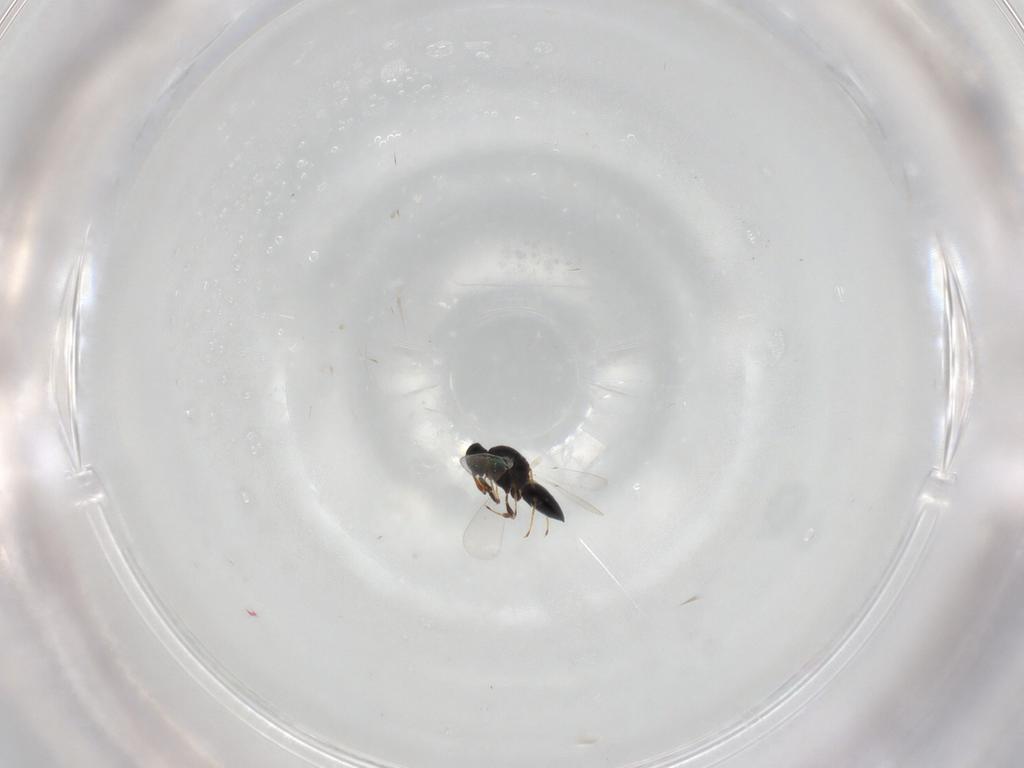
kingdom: Animalia
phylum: Arthropoda
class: Insecta
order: Hymenoptera
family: Platygastridae
